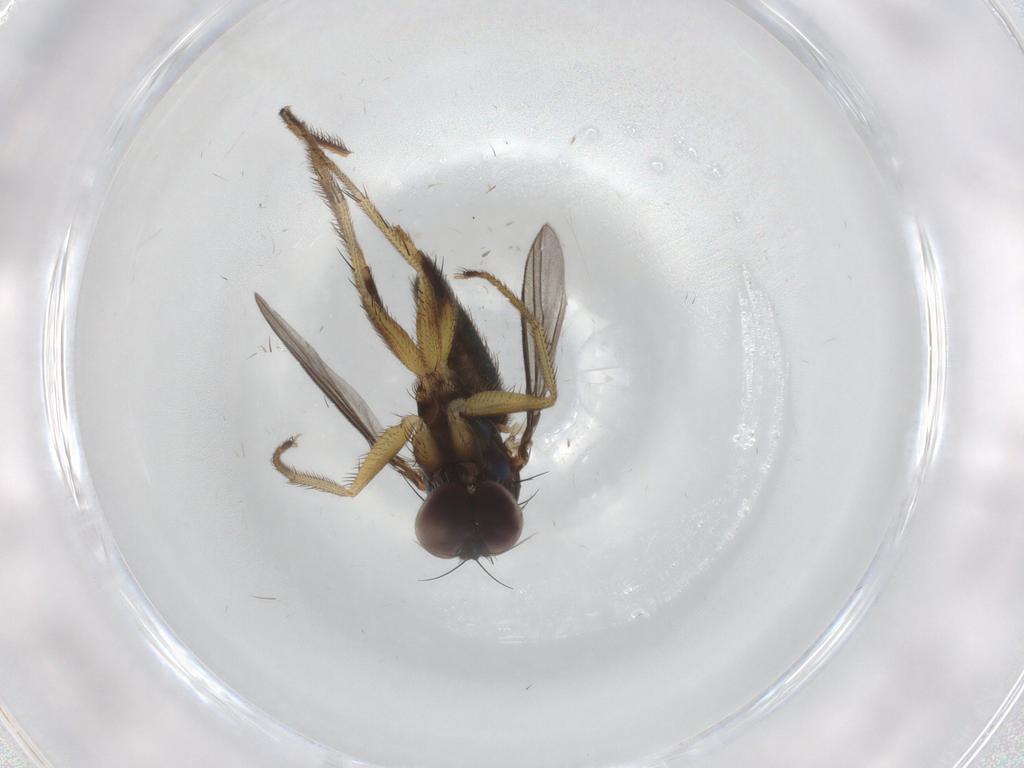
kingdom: Animalia
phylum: Arthropoda
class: Insecta
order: Diptera
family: Dolichopodidae
